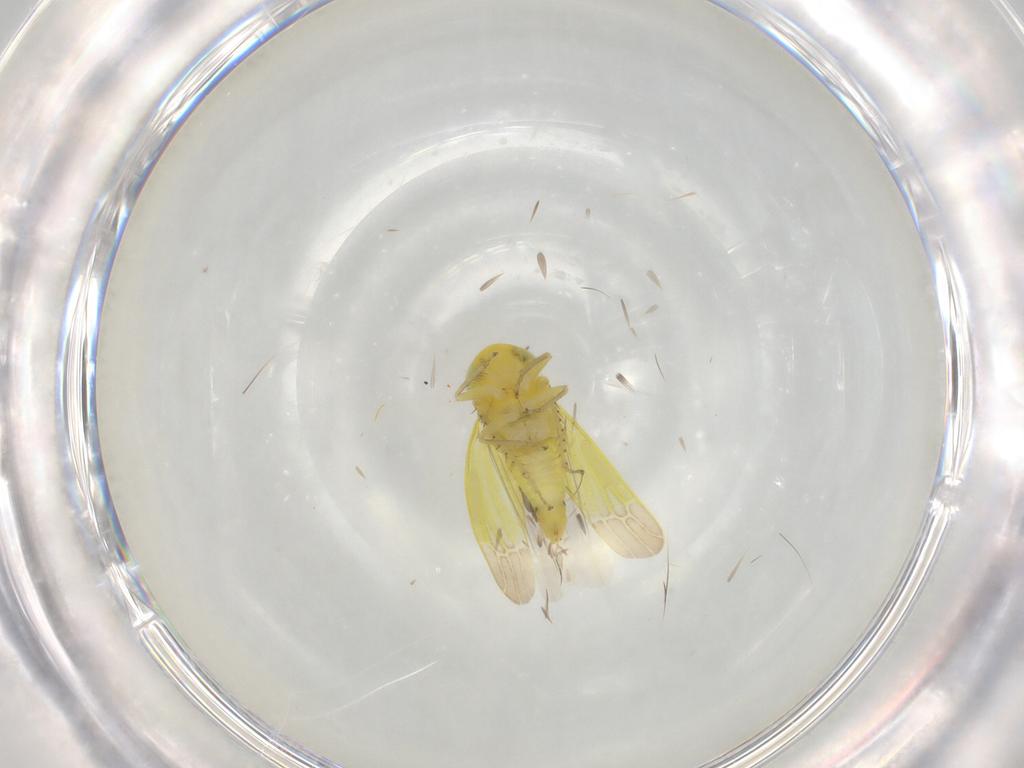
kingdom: Animalia
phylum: Arthropoda
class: Insecta
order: Hemiptera
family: Cicadellidae
